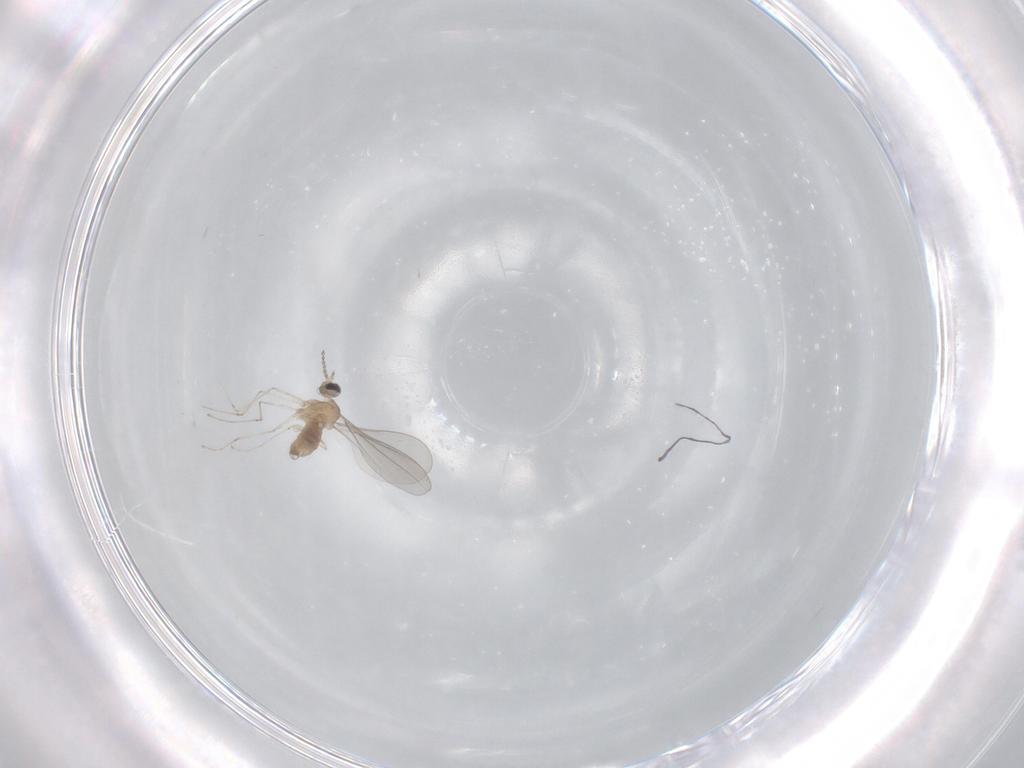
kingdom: Animalia
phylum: Arthropoda
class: Insecta
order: Diptera
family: Cecidomyiidae
